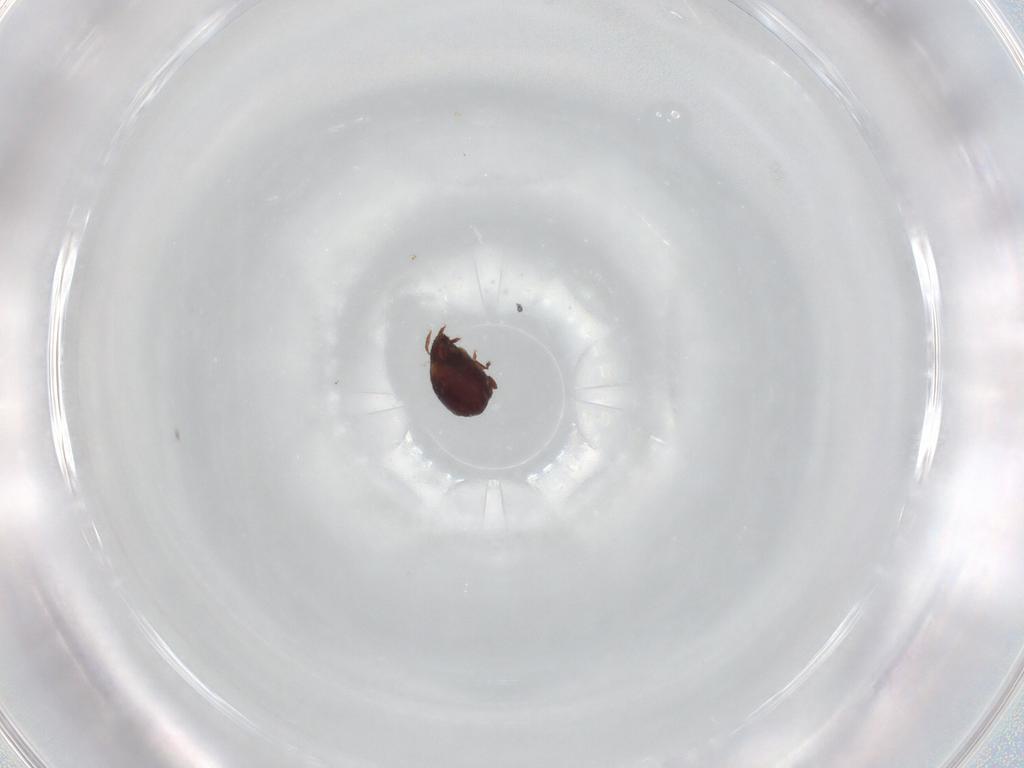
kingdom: Animalia
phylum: Arthropoda
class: Arachnida
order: Sarcoptiformes
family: Humerobatidae
